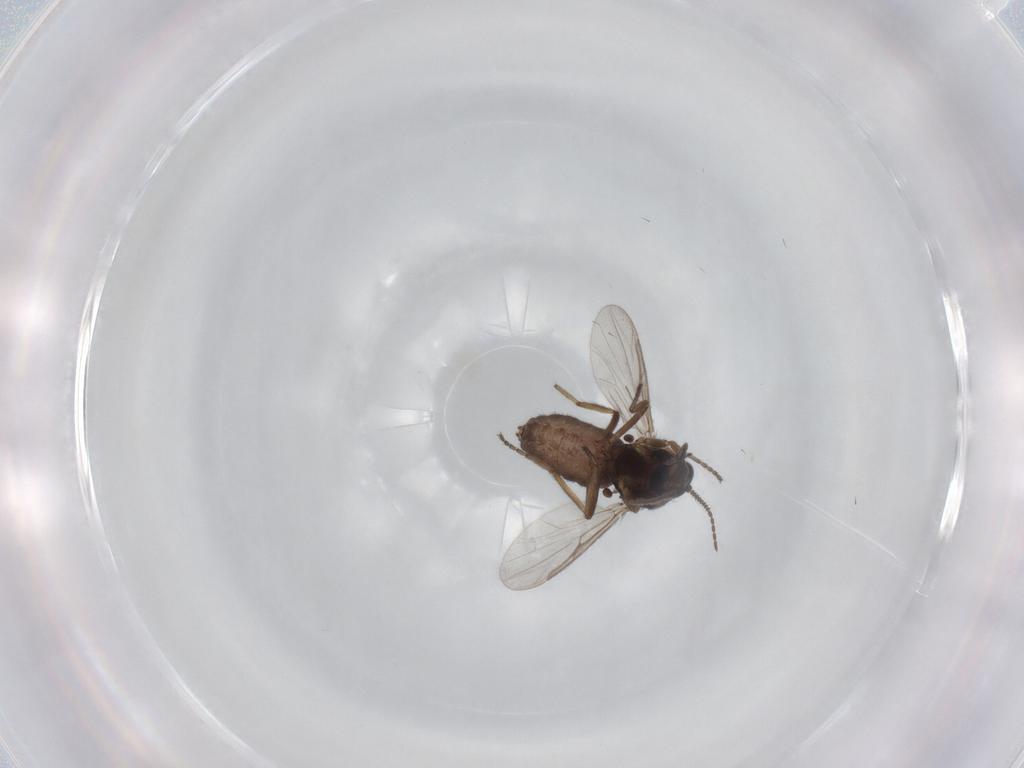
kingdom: Animalia
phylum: Arthropoda
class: Insecta
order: Diptera
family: Ceratopogonidae
